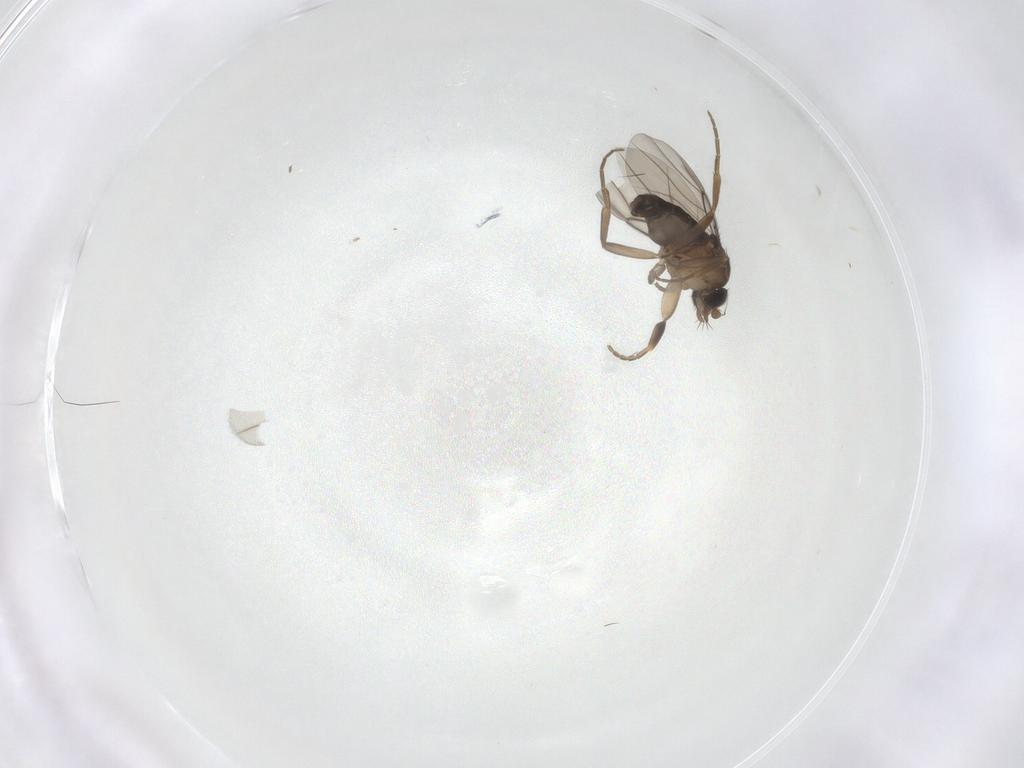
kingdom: Animalia
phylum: Arthropoda
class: Insecta
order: Diptera
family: Phoridae
